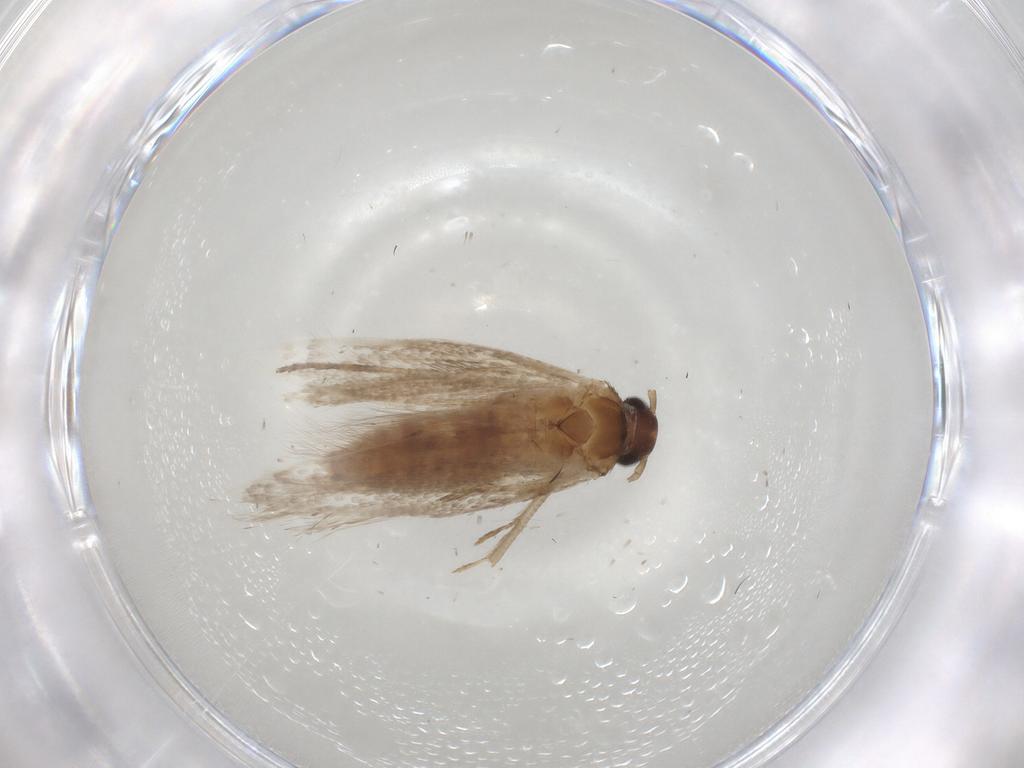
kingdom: Animalia
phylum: Arthropoda
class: Insecta
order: Lepidoptera
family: Gelechiidae
